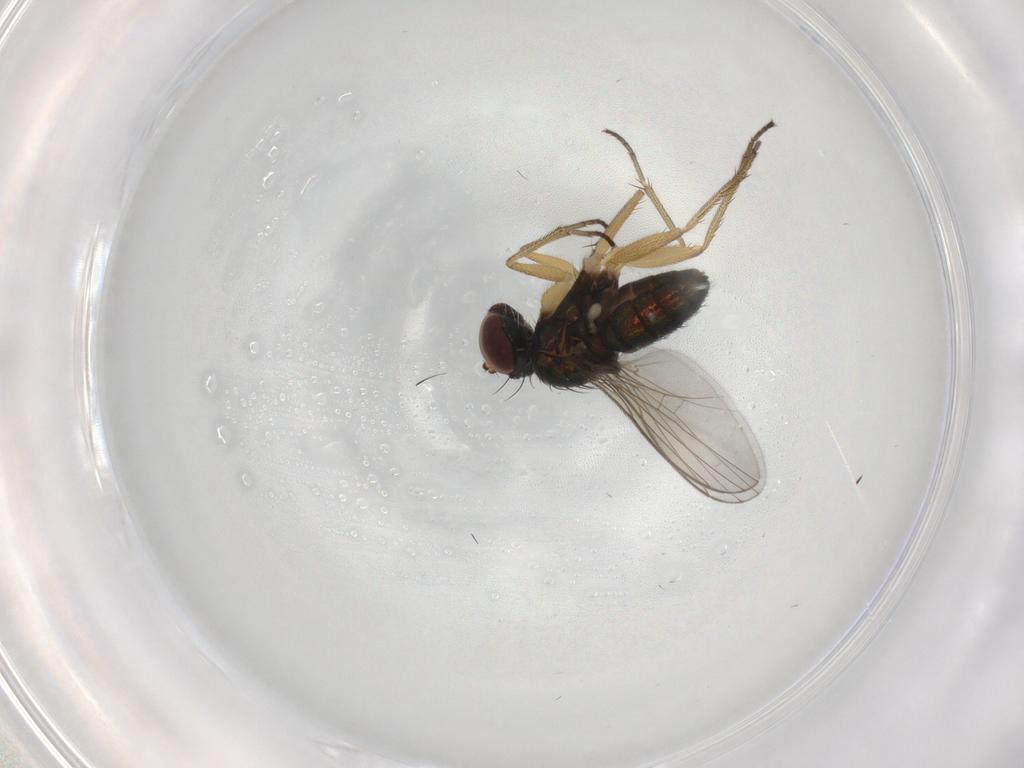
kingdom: Animalia
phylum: Arthropoda
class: Insecta
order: Diptera
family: Dolichopodidae
